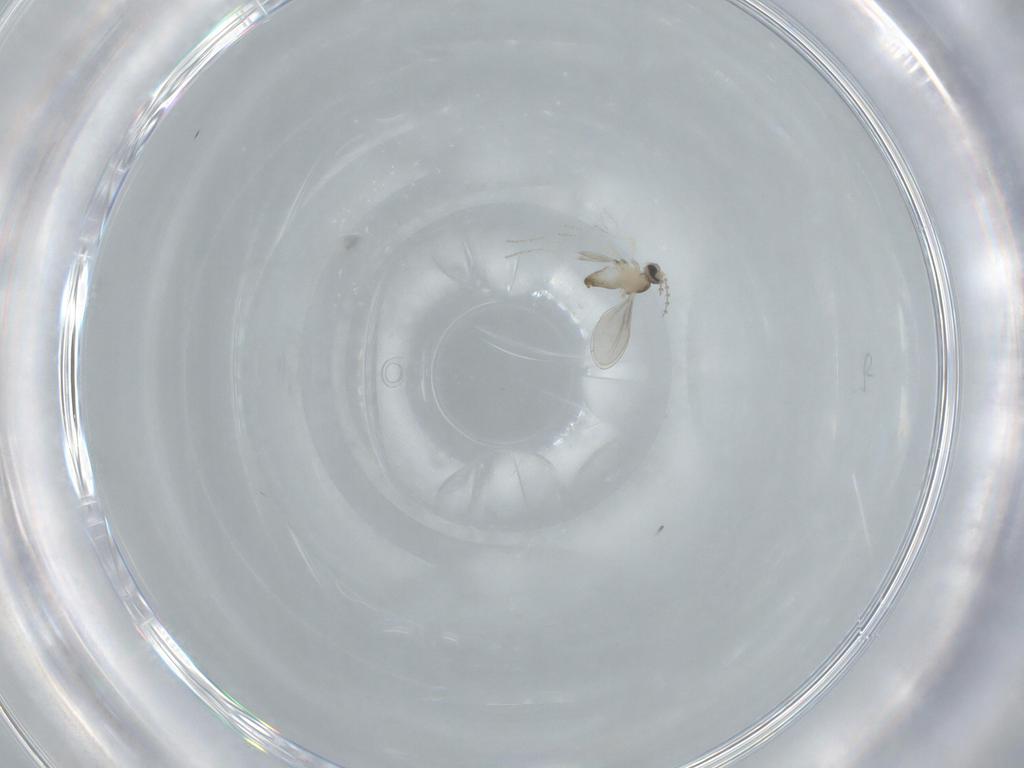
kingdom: Animalia
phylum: Arthropoda
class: Insecta
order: Diptera
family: Cecidomyiidae
